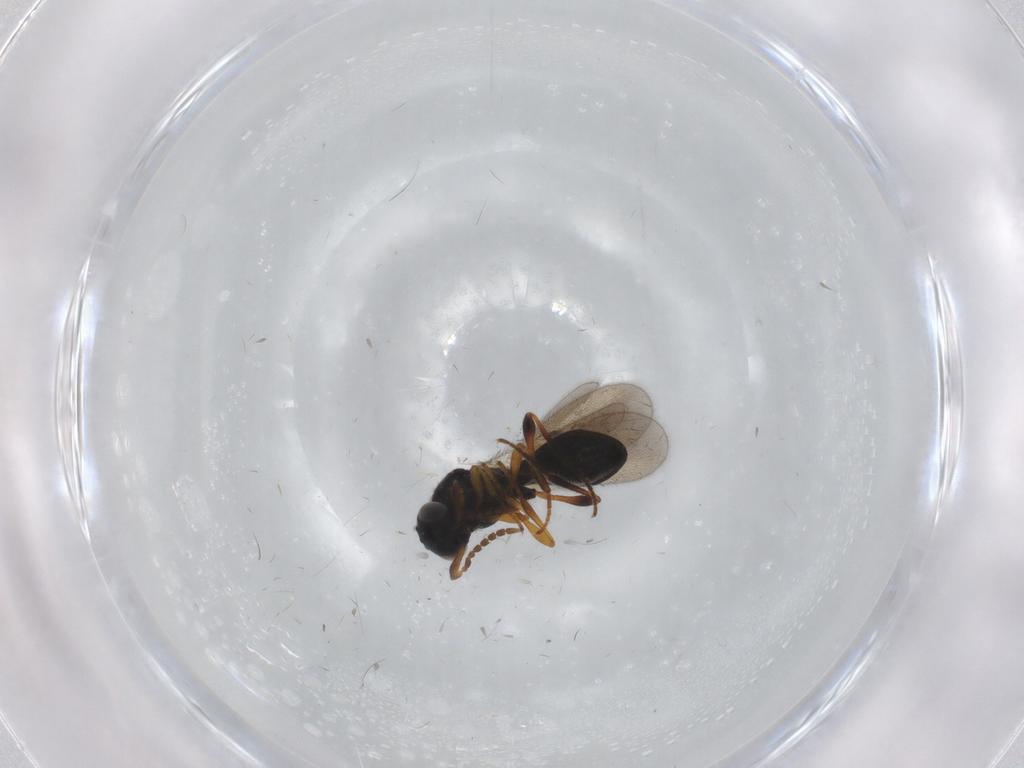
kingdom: Animalia
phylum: Arthropoda
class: Insecta
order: Hymenoptera
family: Platygastridae
